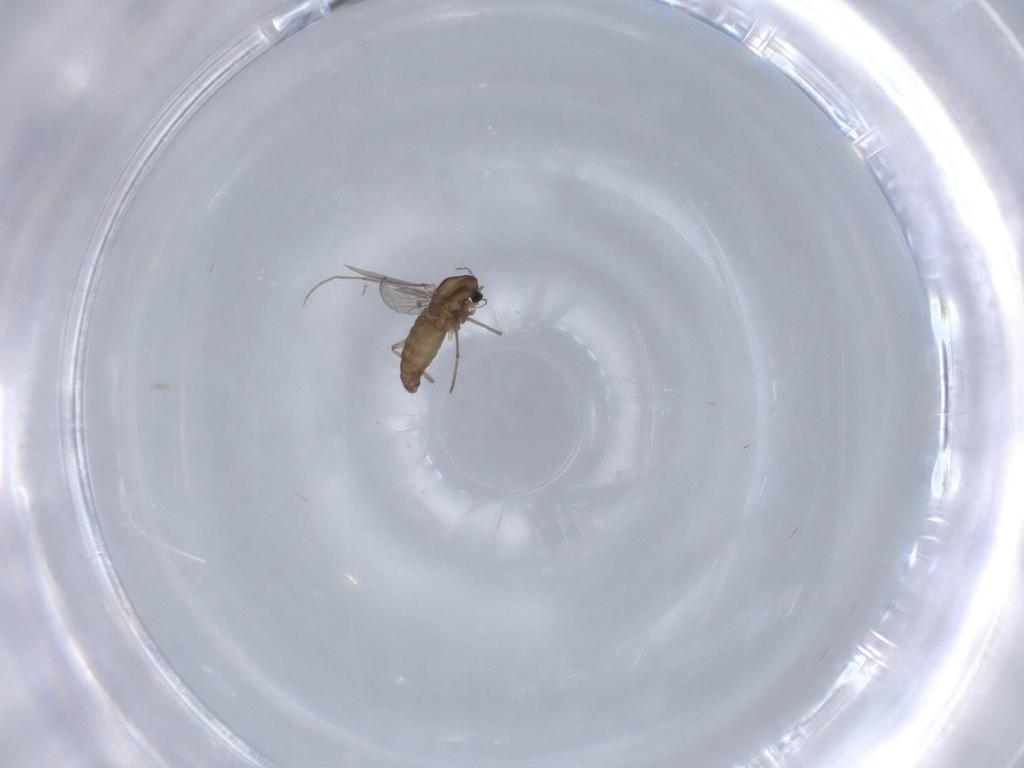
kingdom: Animalia
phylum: Arthropoda
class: Insecta
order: Diptera
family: Chironomidae
